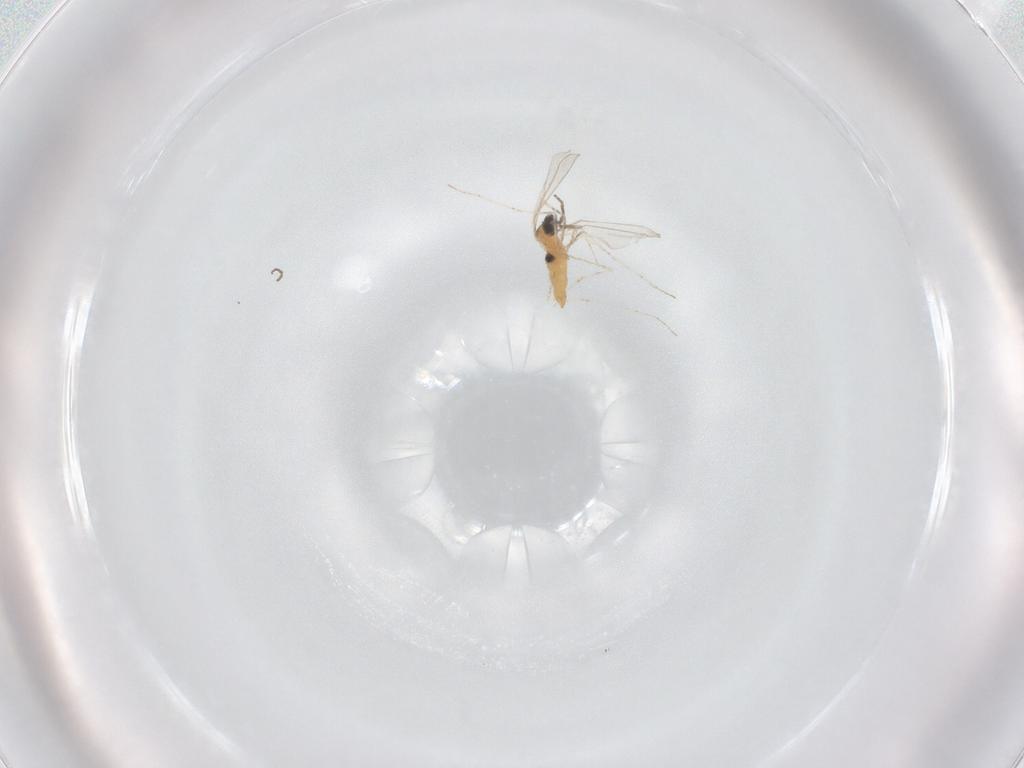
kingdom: Animalia
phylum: Arthropoda
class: Insecta
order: Diptera
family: Cecidomyiidae
